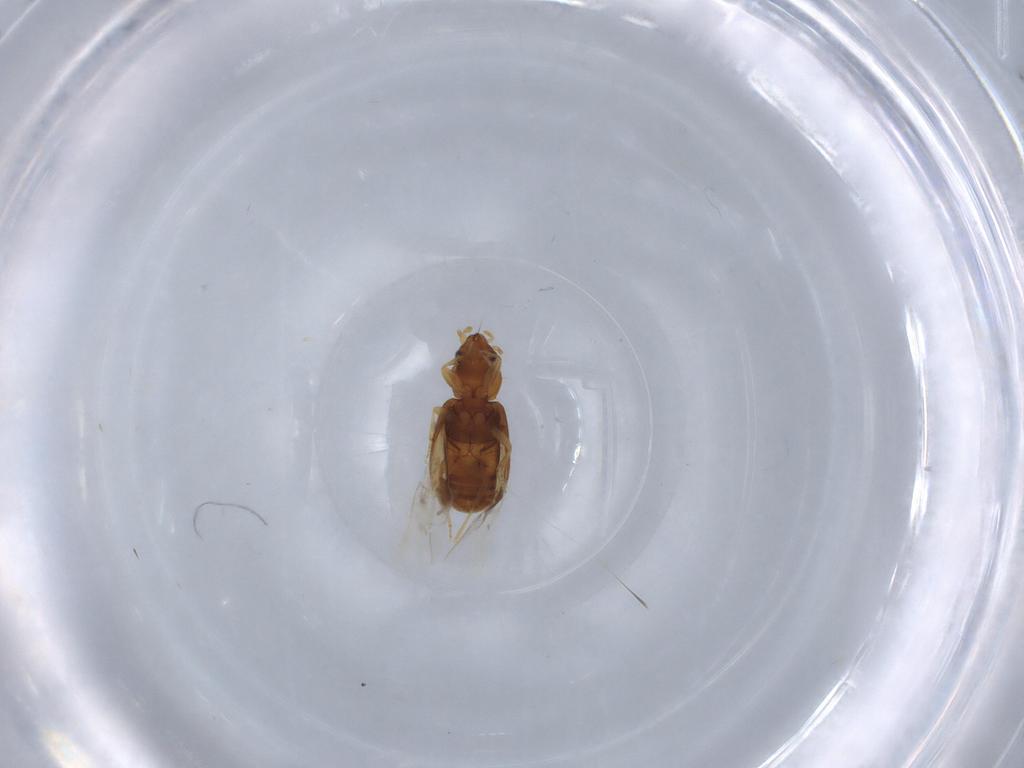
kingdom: Animalia
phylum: Arthropoda
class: Insecta
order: Coleoptera
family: Carabidae
